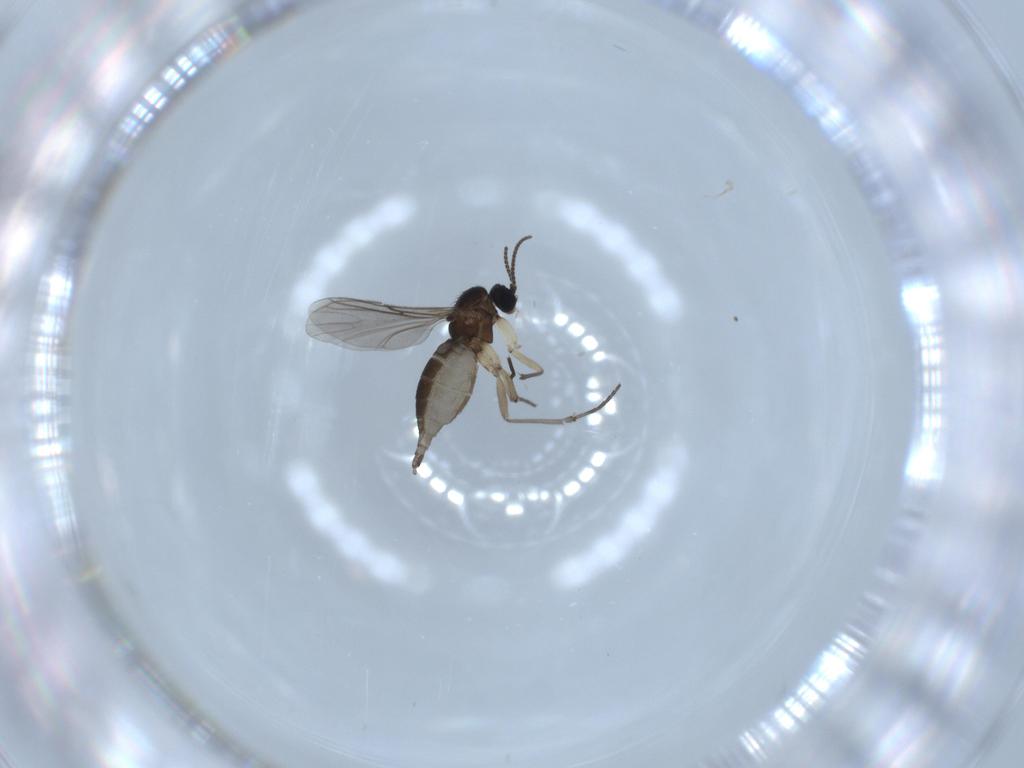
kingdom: Animalia
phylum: Arthropoda
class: Insecta
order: Diptera
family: Sciaridae
